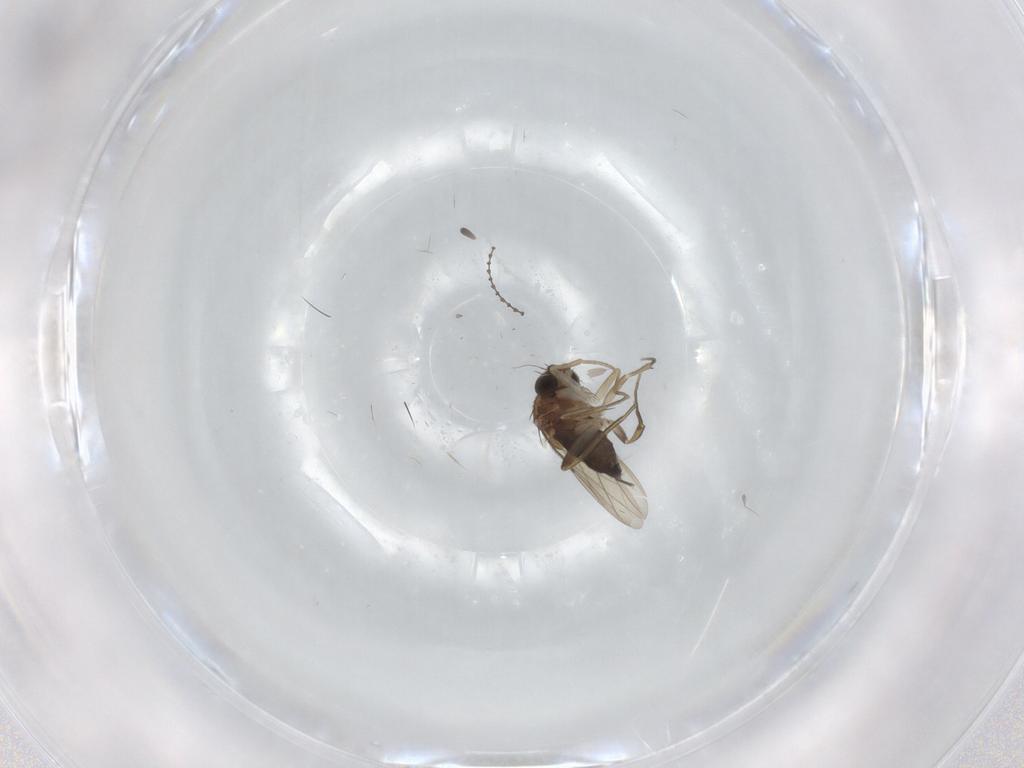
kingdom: Animalia
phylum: Arthropoda
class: Insecta
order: Diptera
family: Phoridae
